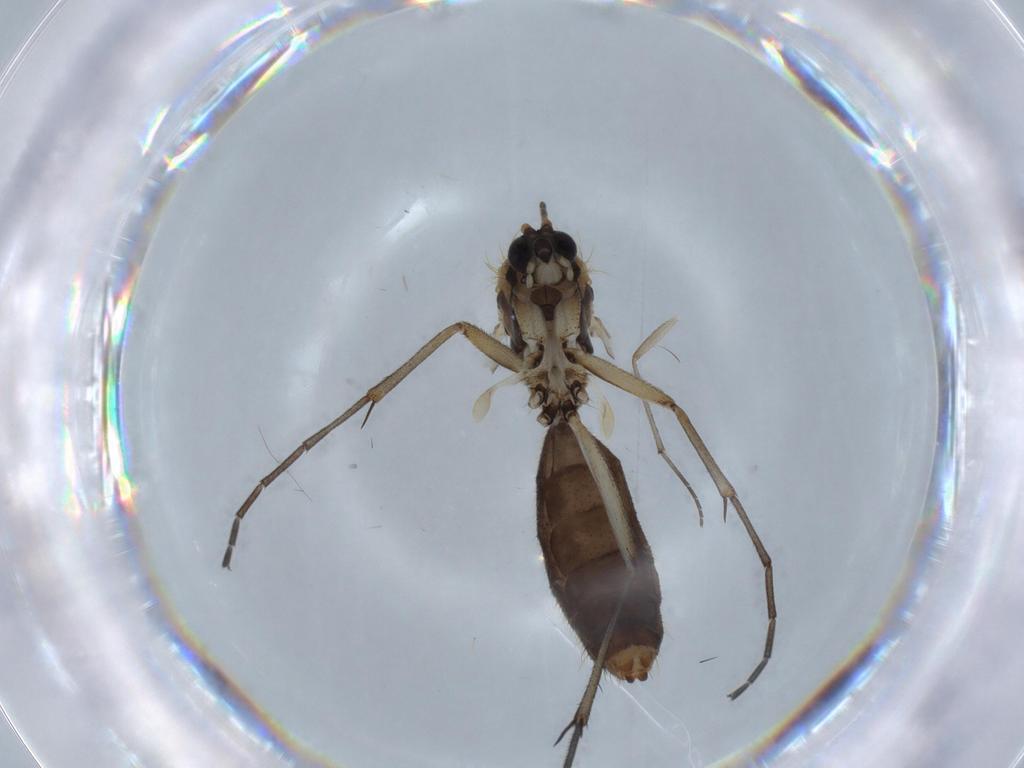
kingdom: Animalia
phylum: Arthropoda
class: Insecta
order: Diptera
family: Mycetophilidae
